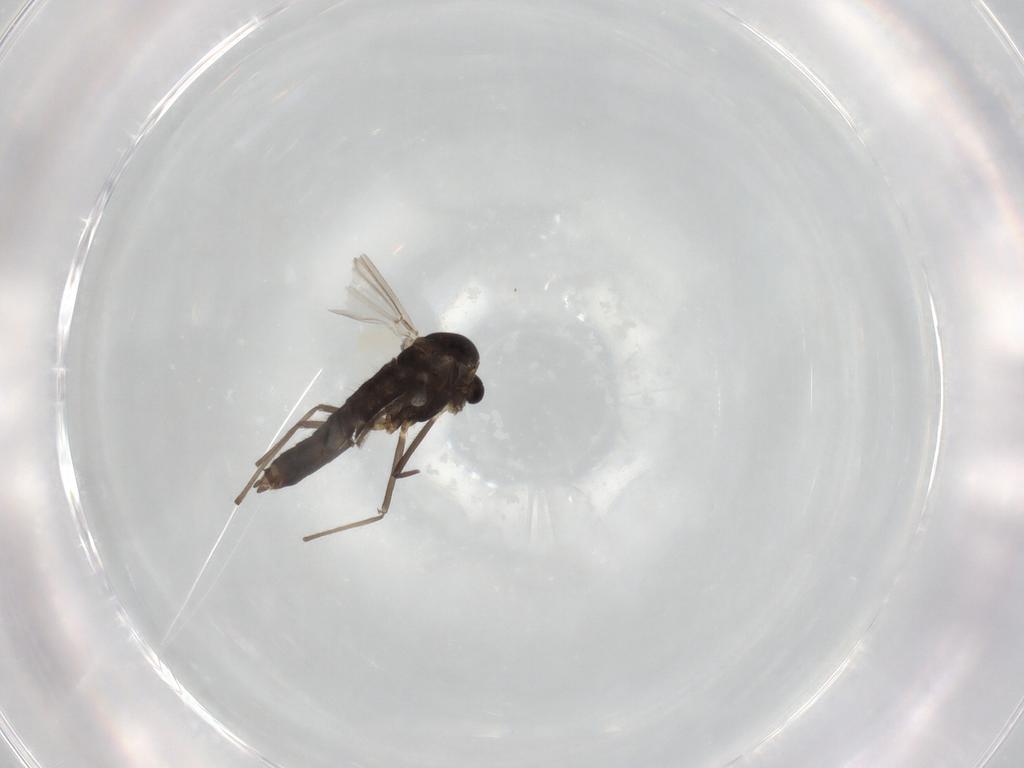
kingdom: Animalia
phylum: Arthropoda
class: Insecta
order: Diptera
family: Chironomidae
